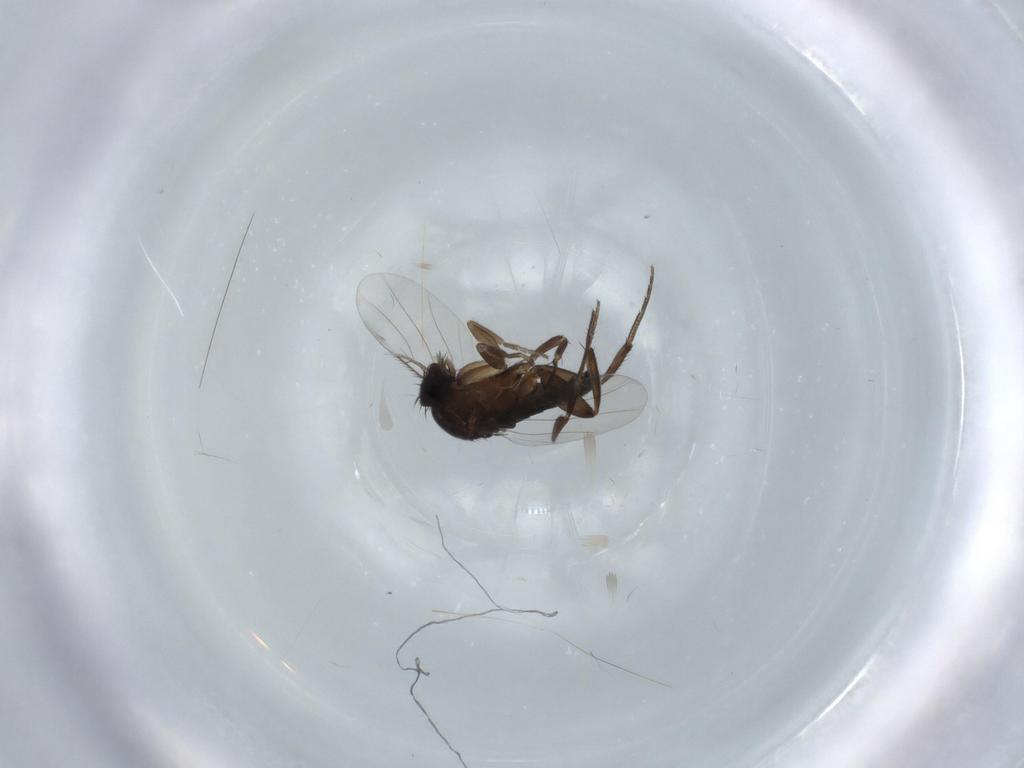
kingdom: Animalia
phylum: Arthropoda
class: Insecta
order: Diptera
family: Phoridae
